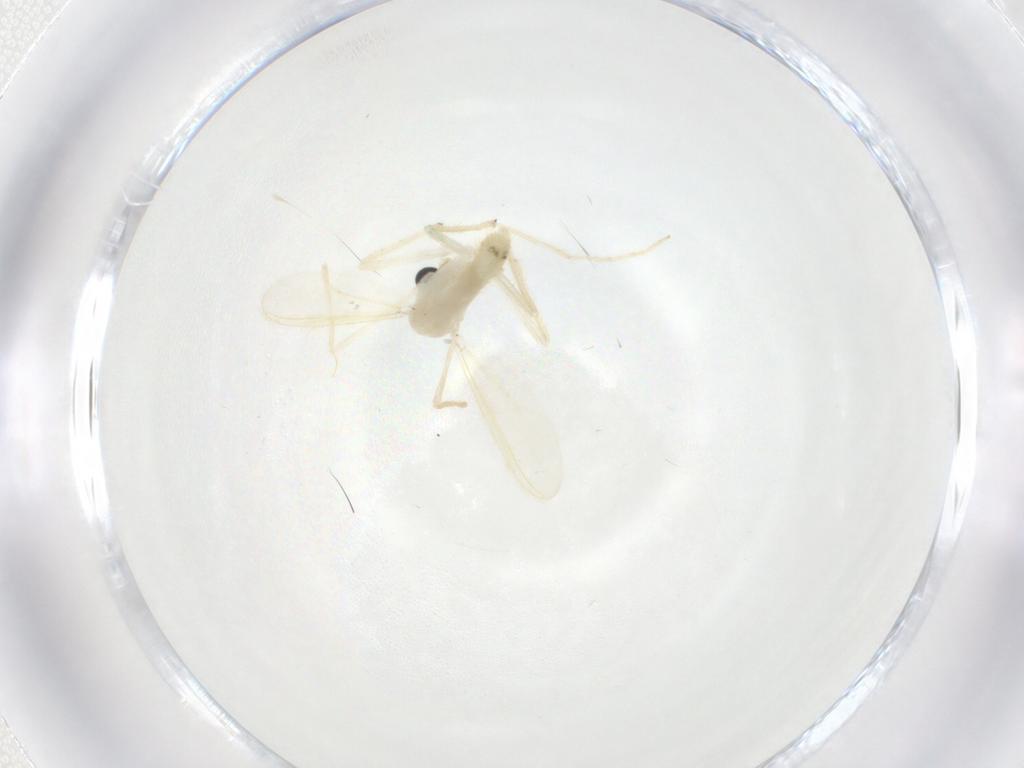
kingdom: Animalia
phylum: Arthropoda
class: Insecta
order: Diptera
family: Chironomidae
